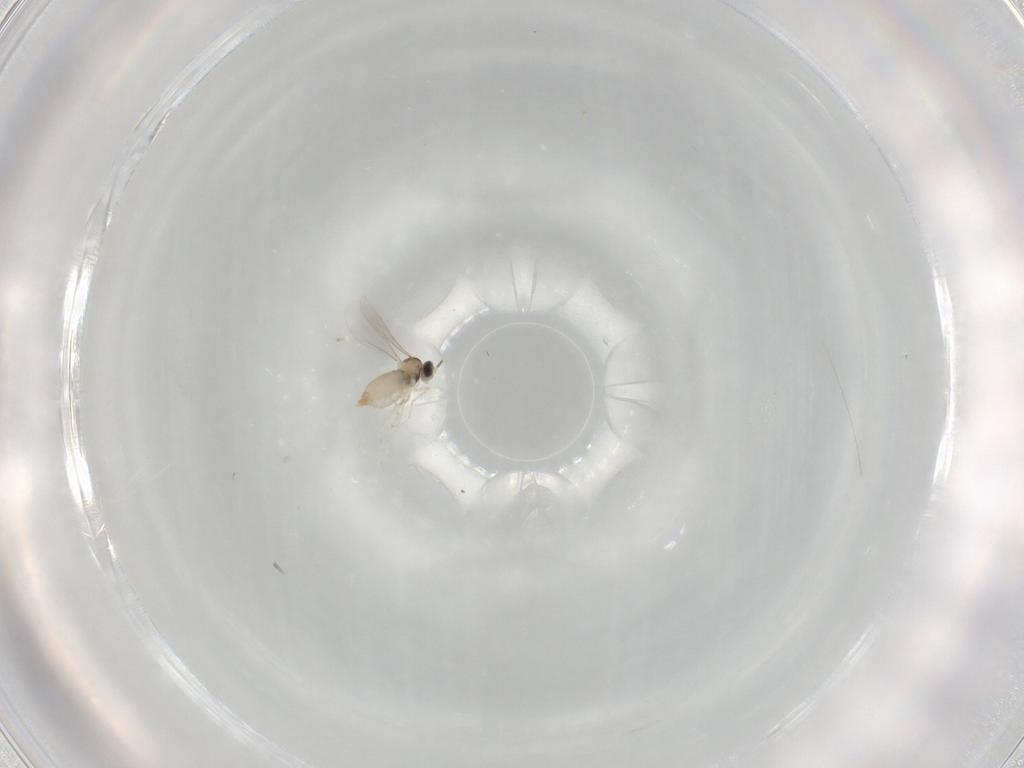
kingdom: Animalia
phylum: Arthropoda
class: Insecta
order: Diptera
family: Cecidomyiidae
